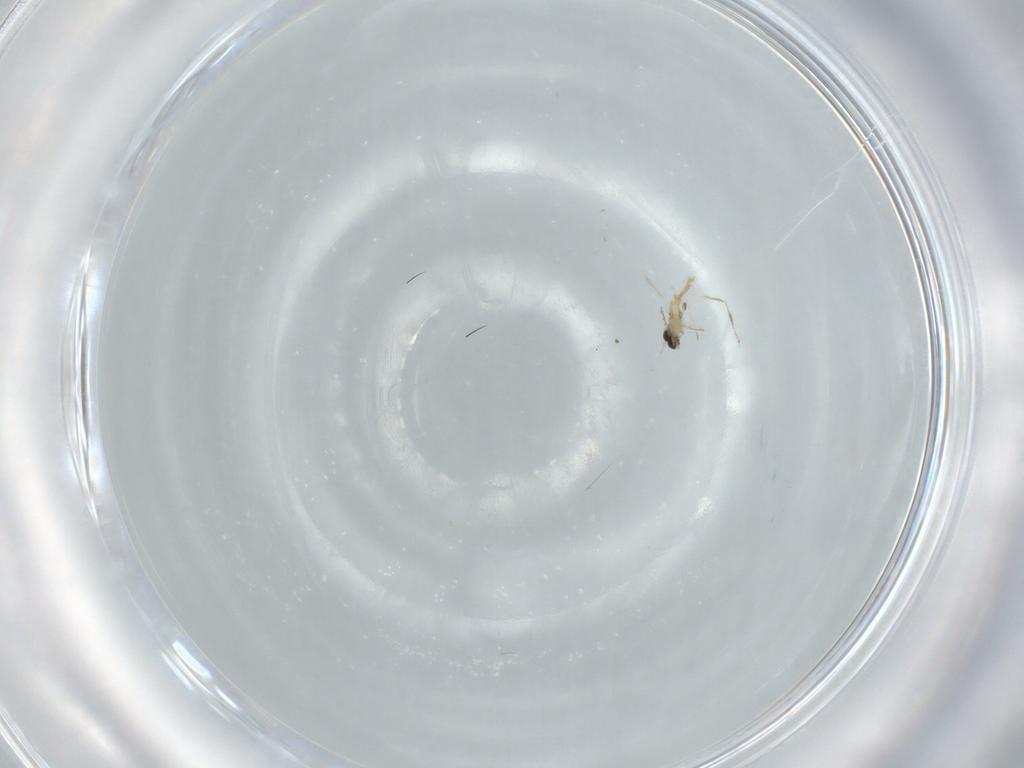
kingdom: Animalia
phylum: Arthropoda
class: Insecta
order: Diptera
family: Cecidomyiidae
